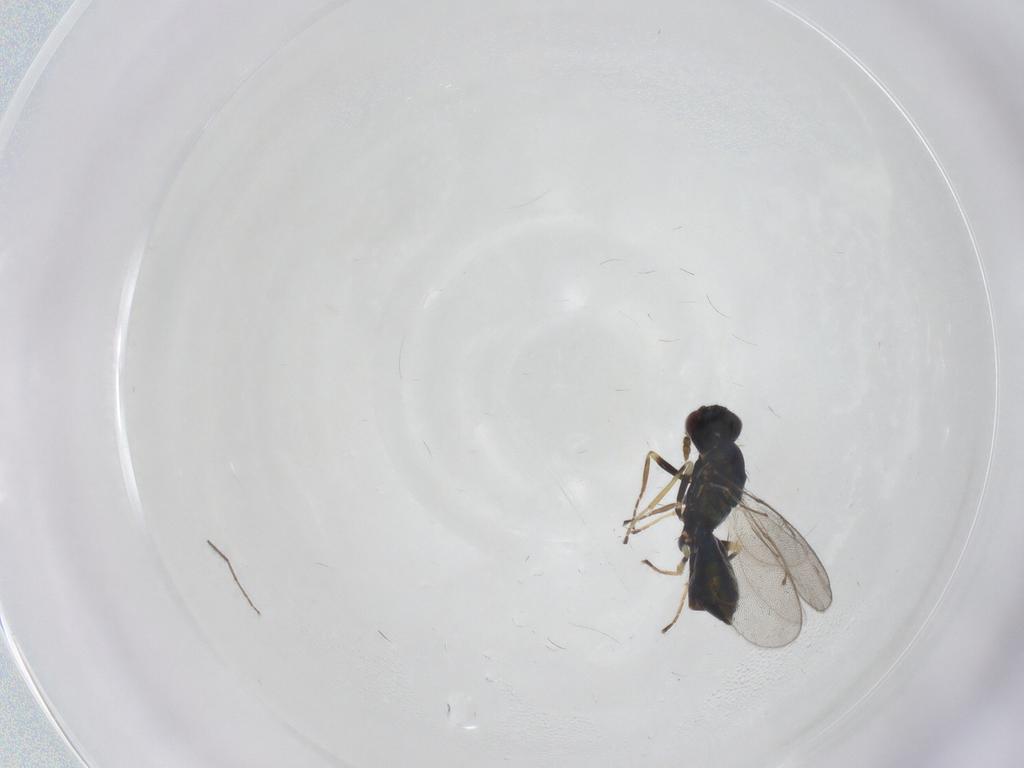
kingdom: Animalia
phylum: Arthropoda
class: Insecta
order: Hymenoptera
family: Eulophidae
